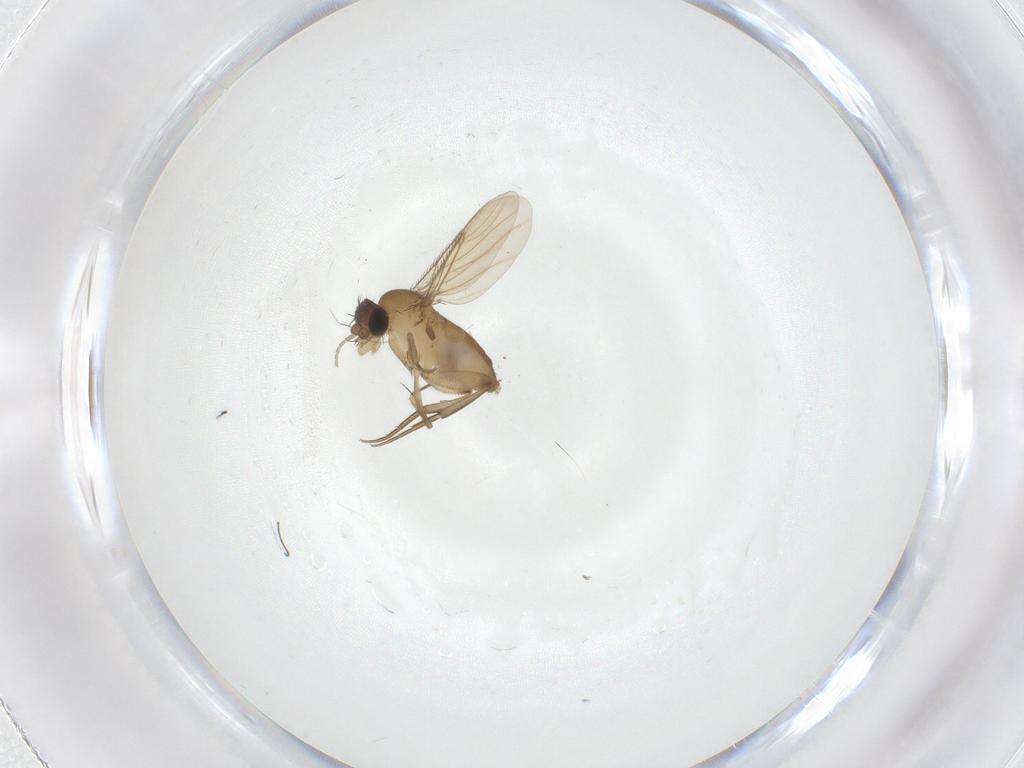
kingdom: Animalia
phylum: Arthropoda
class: Insecta
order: Diptera
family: Phoridae
